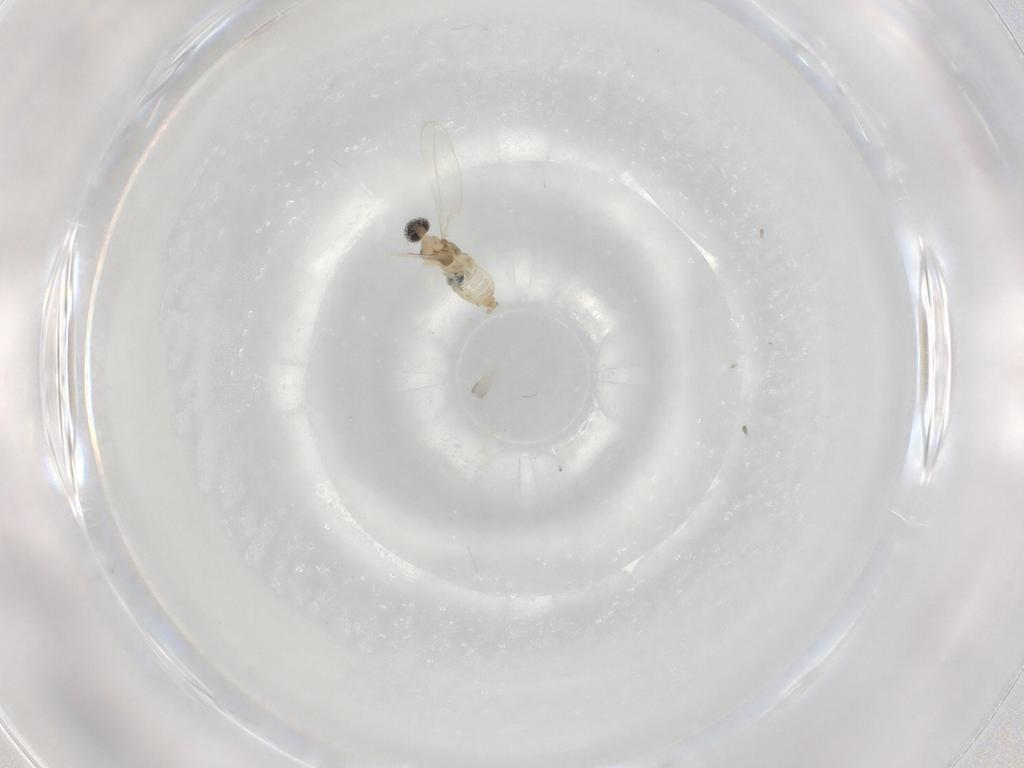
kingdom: Animalia
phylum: Arthropoda
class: Insecta
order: Diptera
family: Cecidomyiidae
